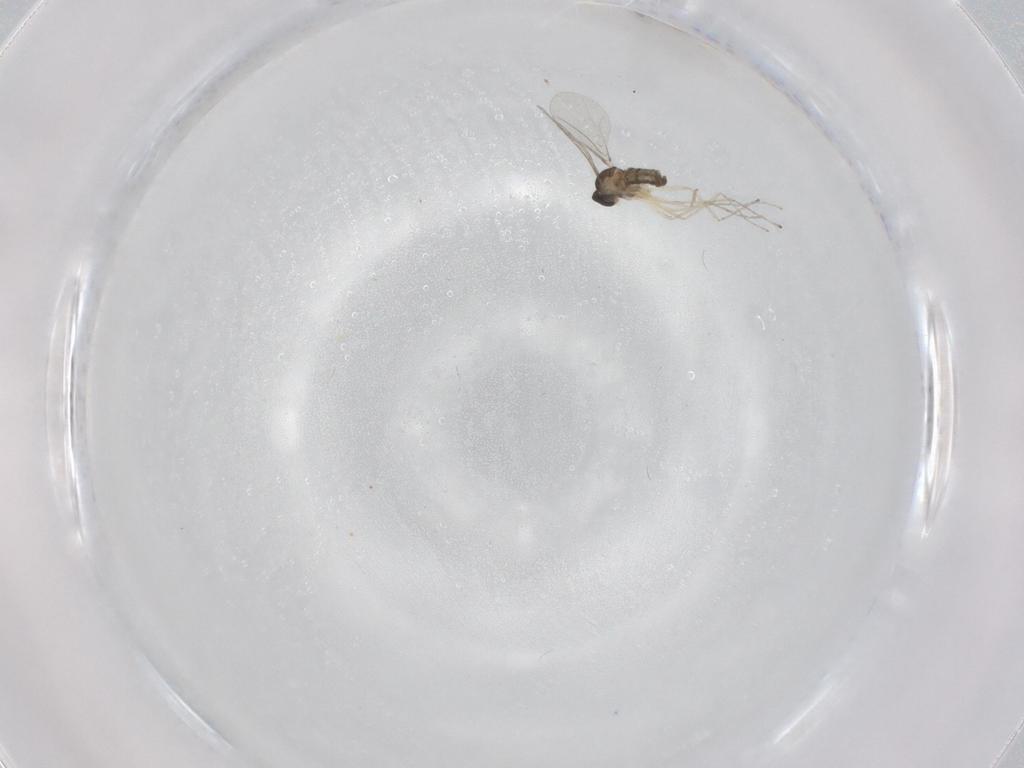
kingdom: Animalia
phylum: Arthropoda
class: Insecta
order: Diptera
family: Cecidomyiidae
